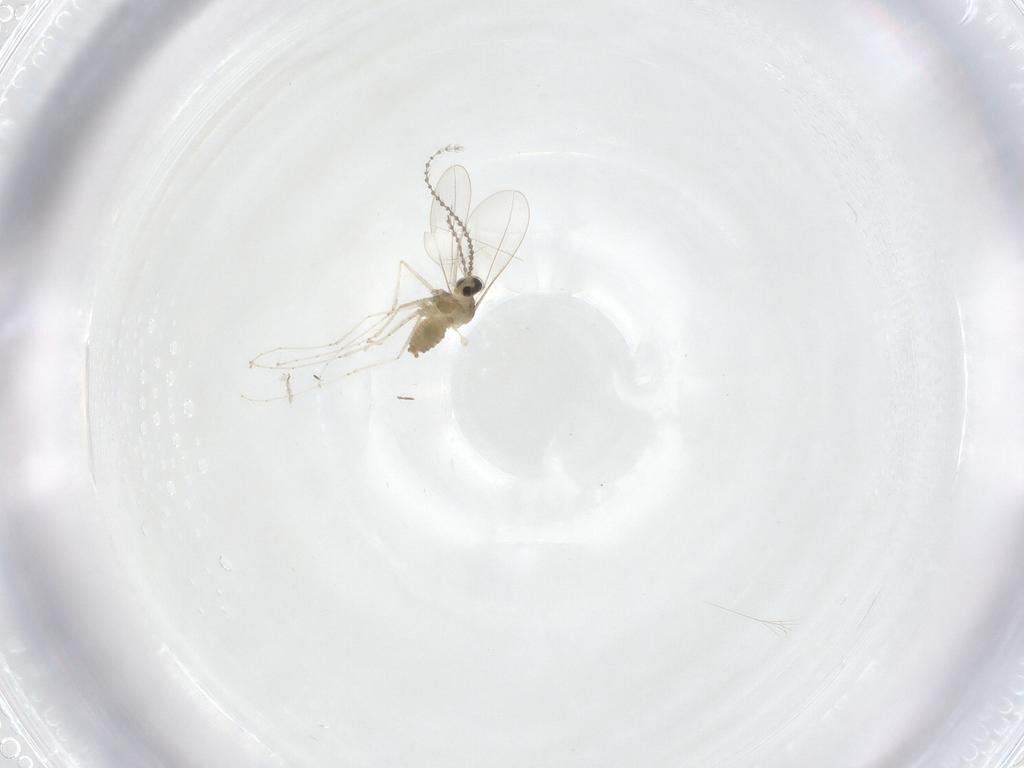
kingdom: Animalia
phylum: Arthropoda
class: Insecta
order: Diptera
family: Cecidomyiidae
